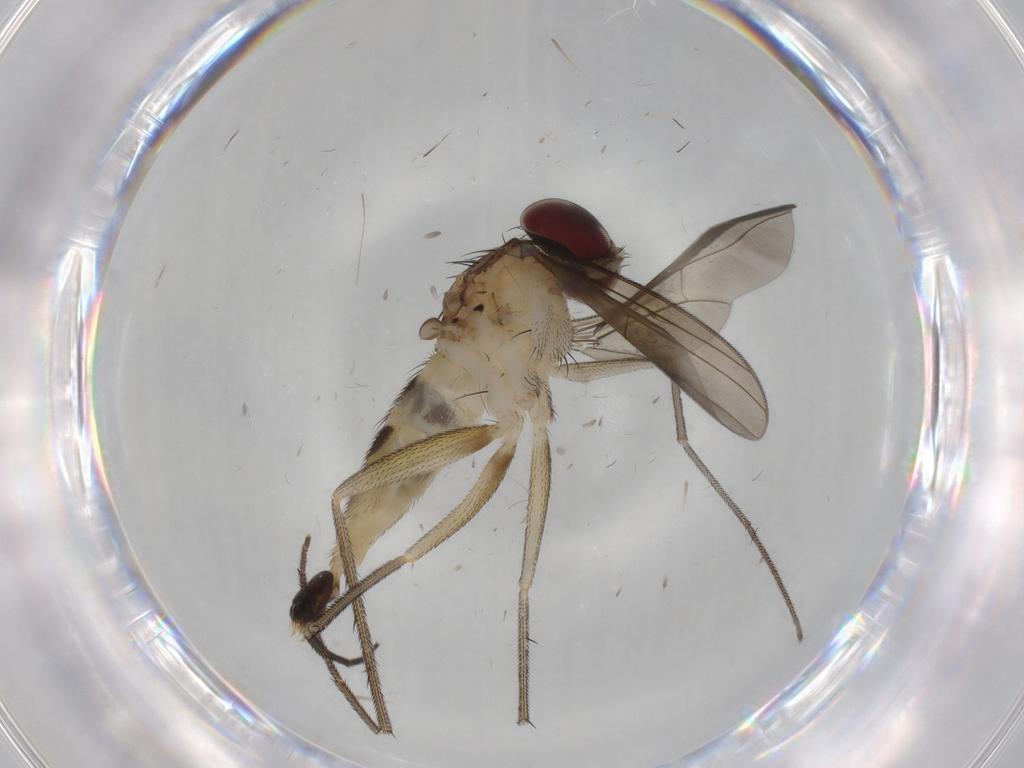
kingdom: Animalia
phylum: Arthropoda
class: Insecta
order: Diptera
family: Dolichopodidae
